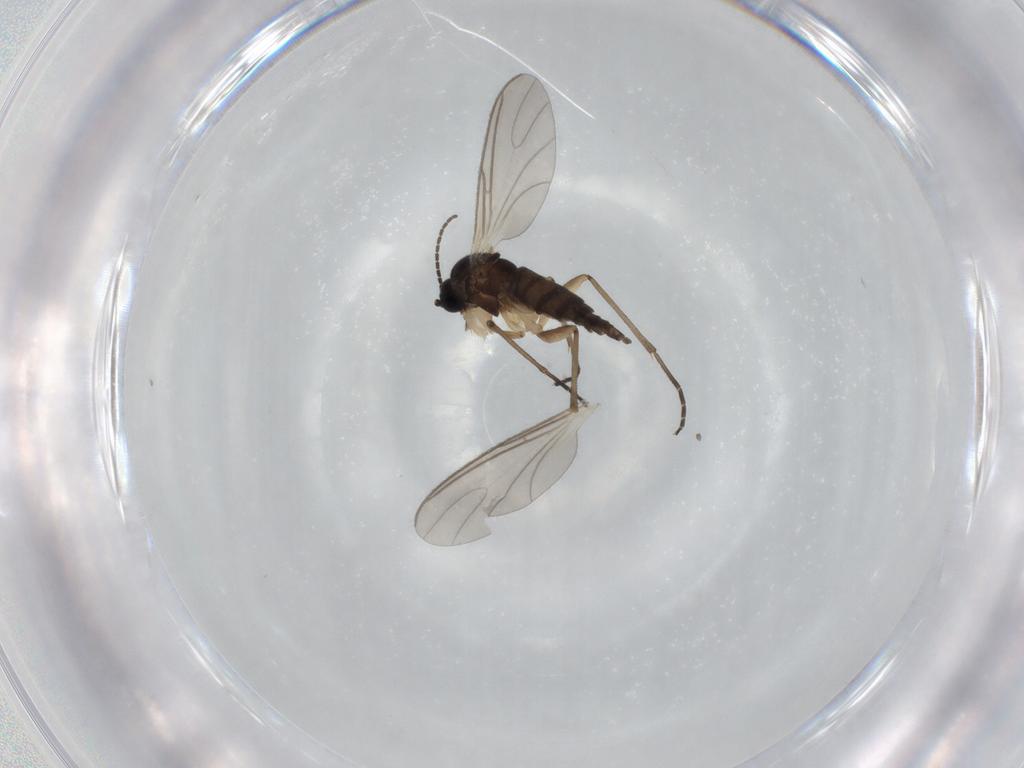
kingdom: Animalia
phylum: Arthropoda
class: Insecta
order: Diptera
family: Sciaridae
